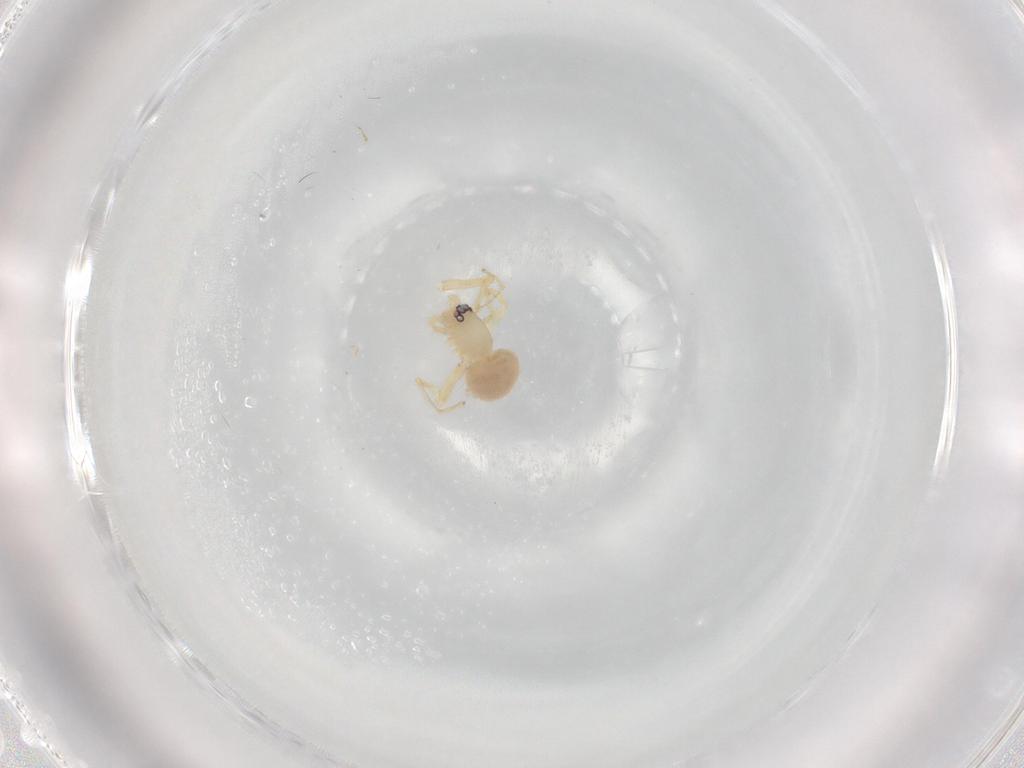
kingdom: Animalia
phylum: Arthropoda
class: Arachnida
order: Araneae
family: Oonopidae
